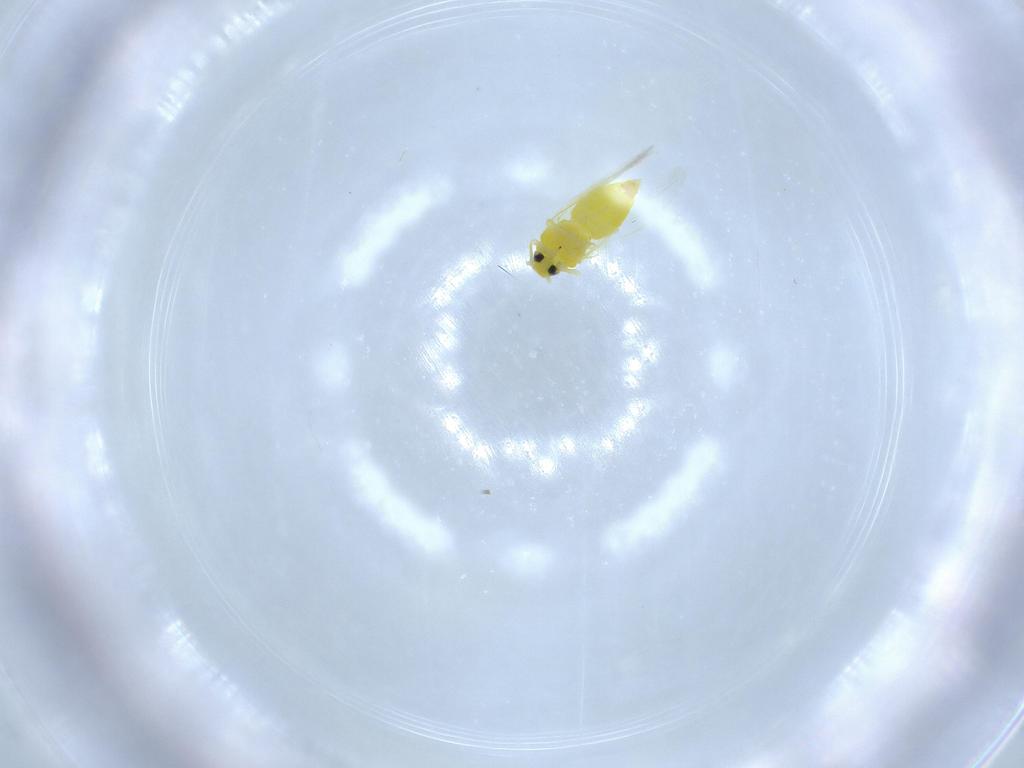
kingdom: Animalia
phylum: Arthropoda
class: Insecta
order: Hemiptera
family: Aleyrodidae
